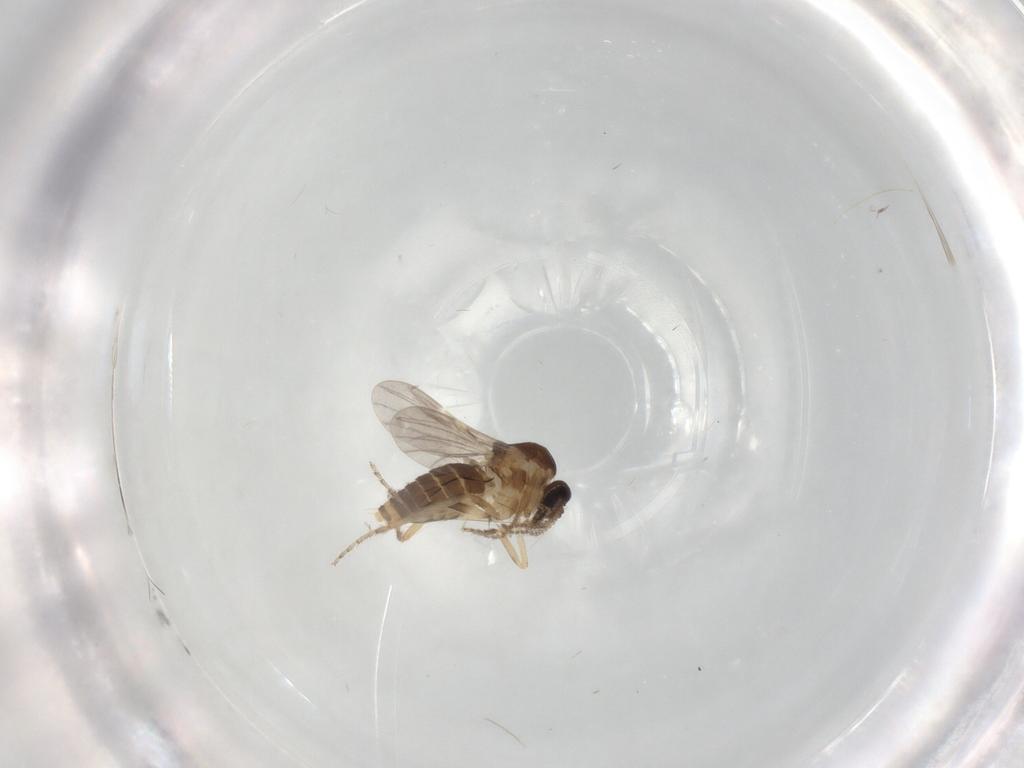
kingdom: Animalia
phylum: Arthropoda
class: Insecta
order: Diptera
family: Ceratopogonidae
